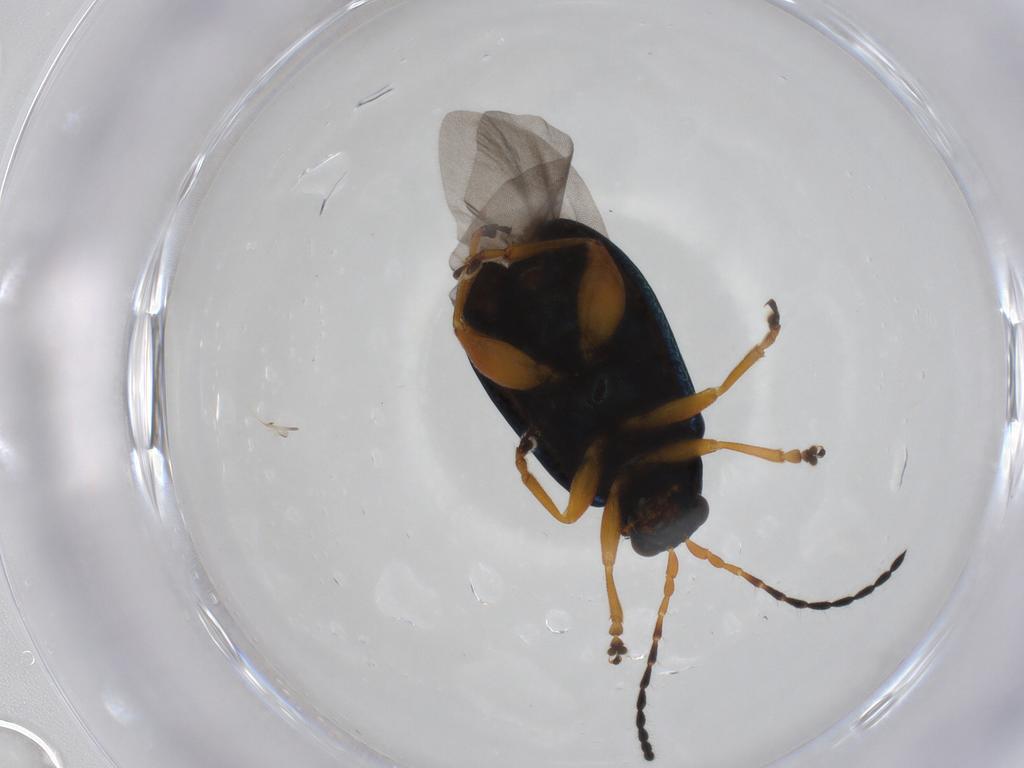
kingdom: Animalia
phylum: Arthropoda
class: Insecta
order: Coleoptera
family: Chrysomelidae
